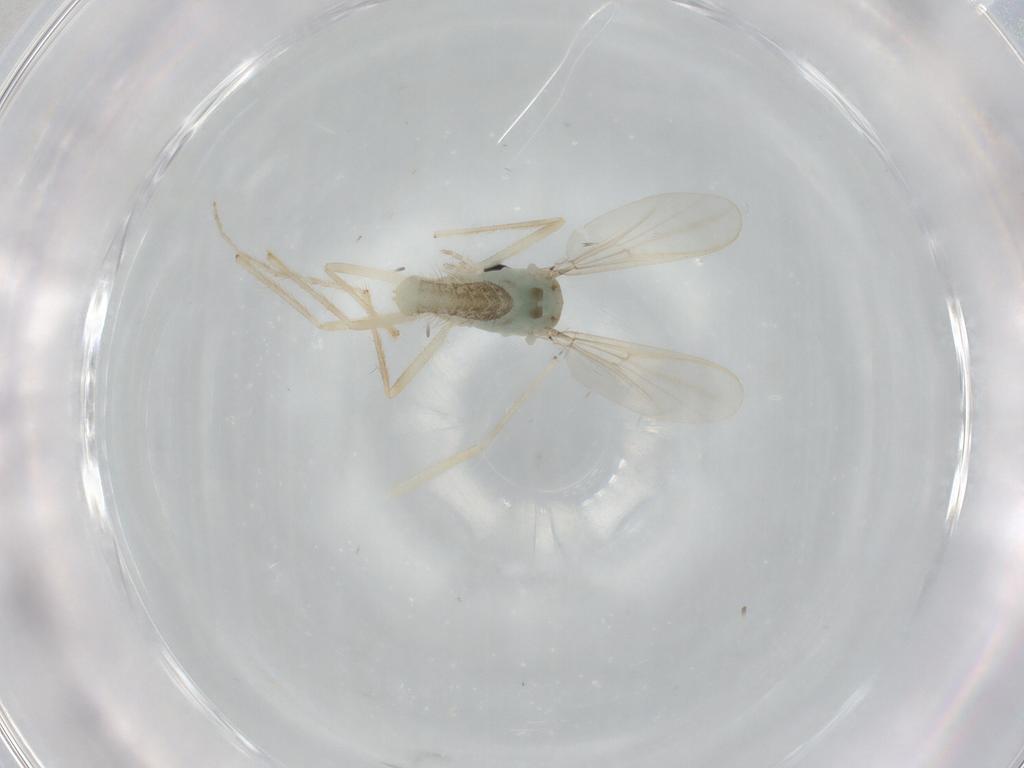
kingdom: Animalia
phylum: Arthropoda
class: Insecta
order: Diptera
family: Chironomidae
